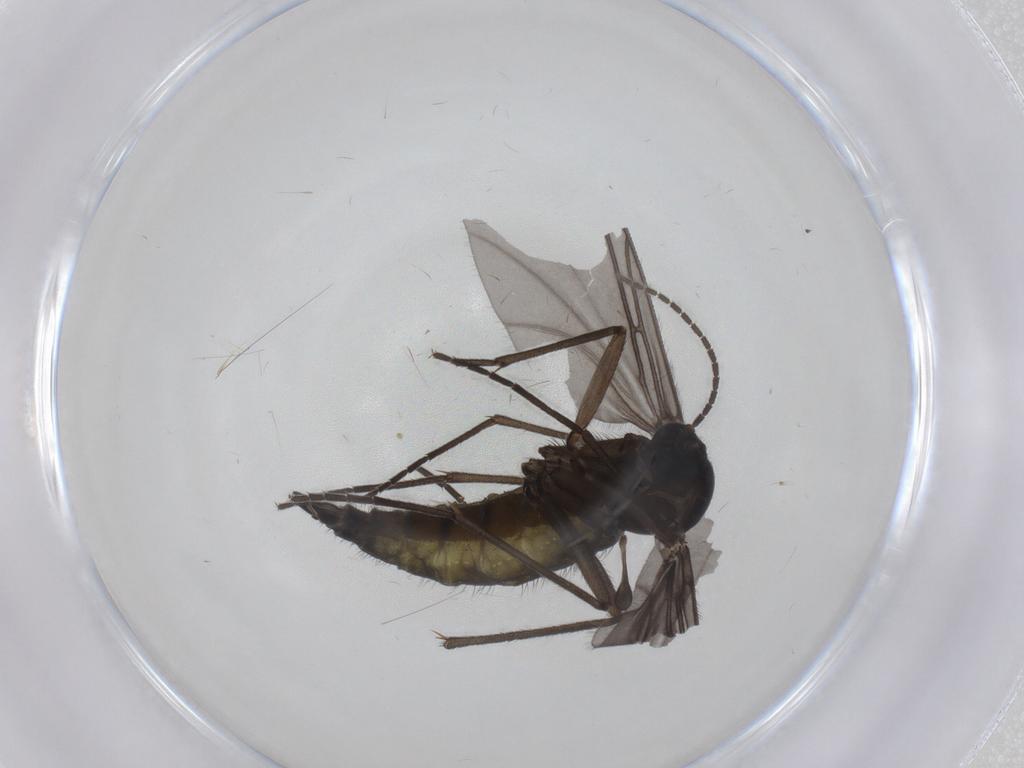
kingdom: Animalia
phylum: Arthropoda
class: Insecta
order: Diptera
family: Sciaridae
